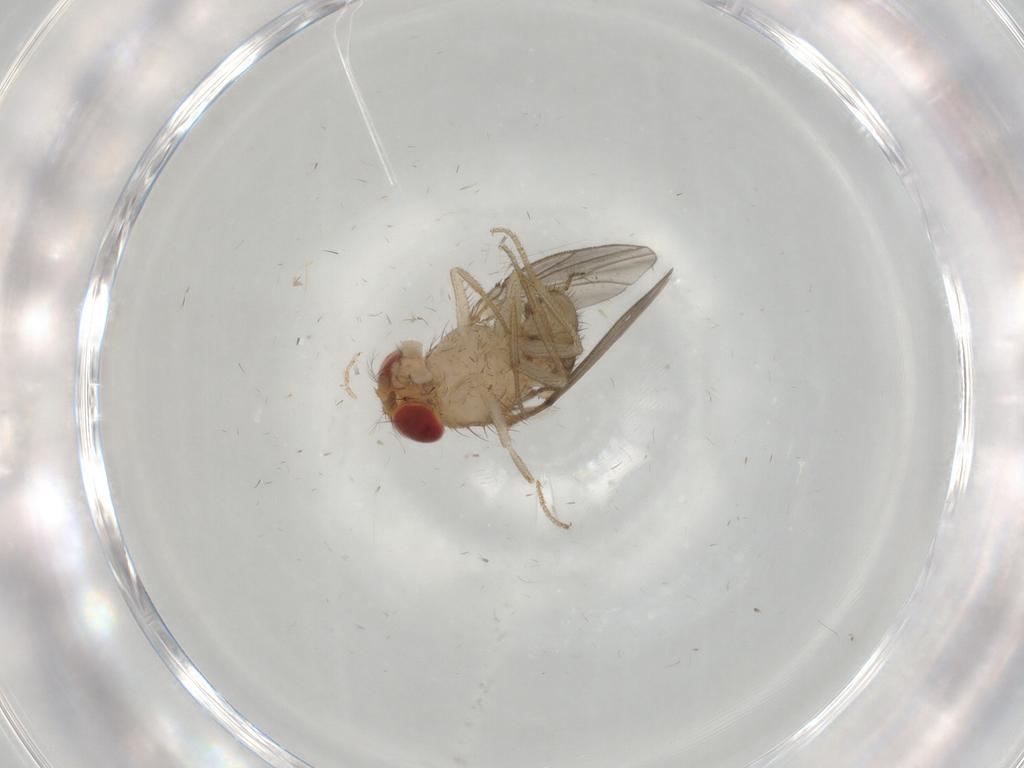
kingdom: Animalia
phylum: Arthropoda
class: Insecta
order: Diptera
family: Drosophilidae
